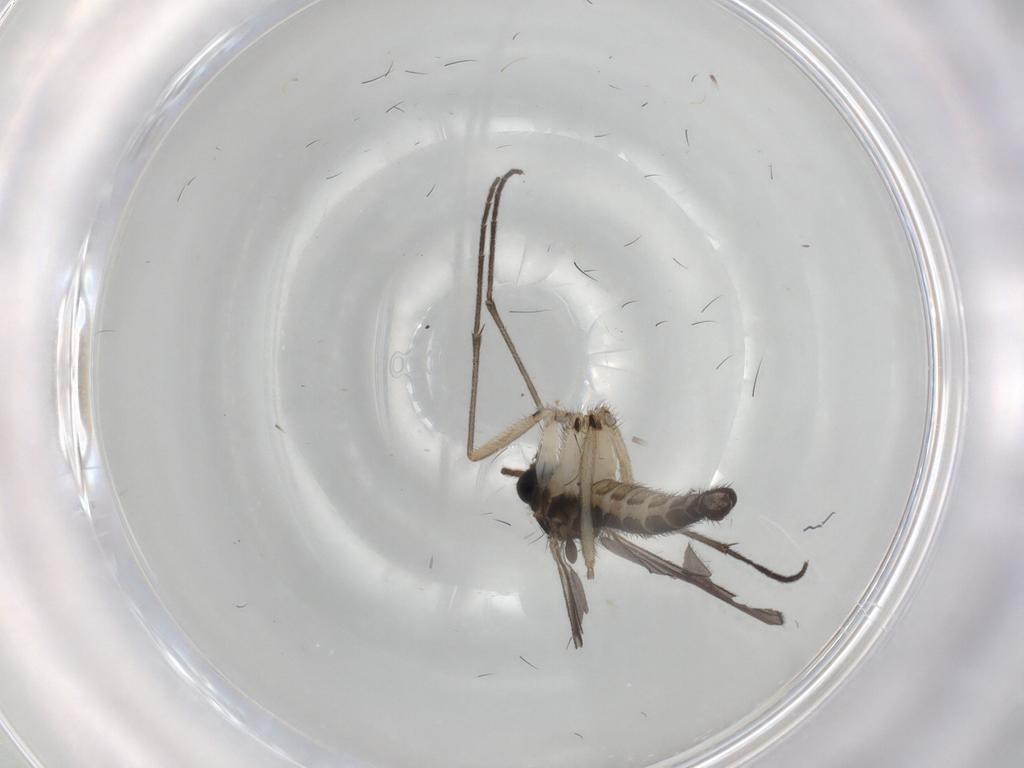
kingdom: Animalia
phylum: Arthropoda
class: Insecta
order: Diptera
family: Sciaridae
